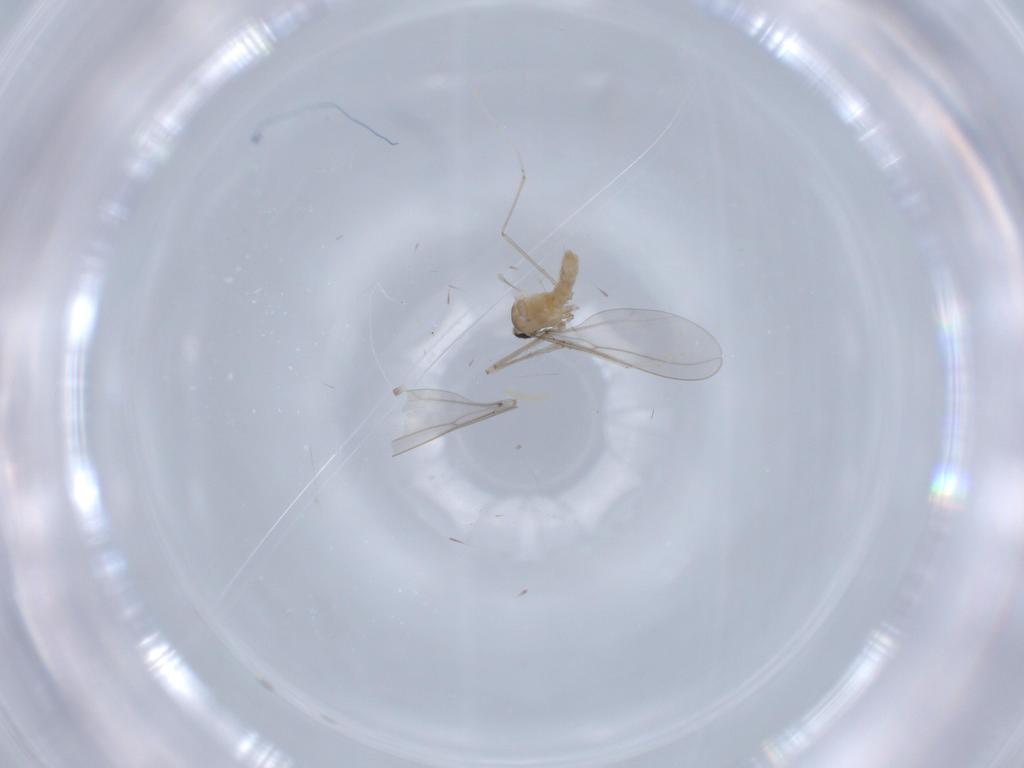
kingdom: Animalia
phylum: Arthropoda
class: Insecta
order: Diptera
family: Cecidomyiidae
